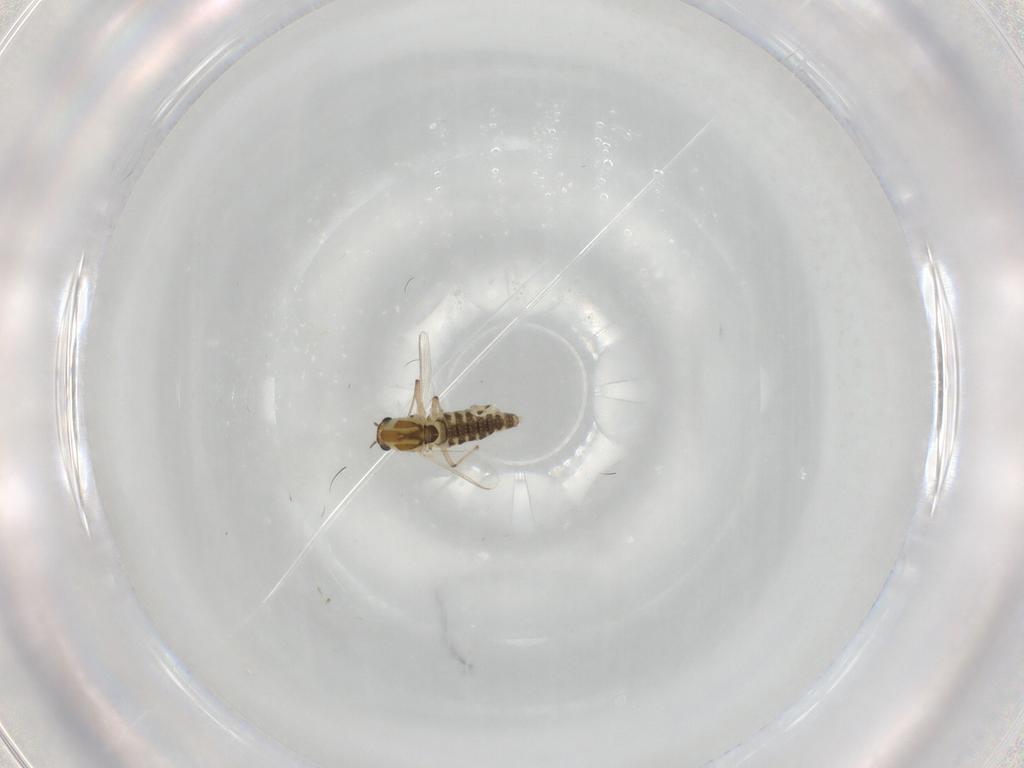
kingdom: Animalia
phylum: Arthropoda
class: Insecta
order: Diptera
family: Chironomidae
